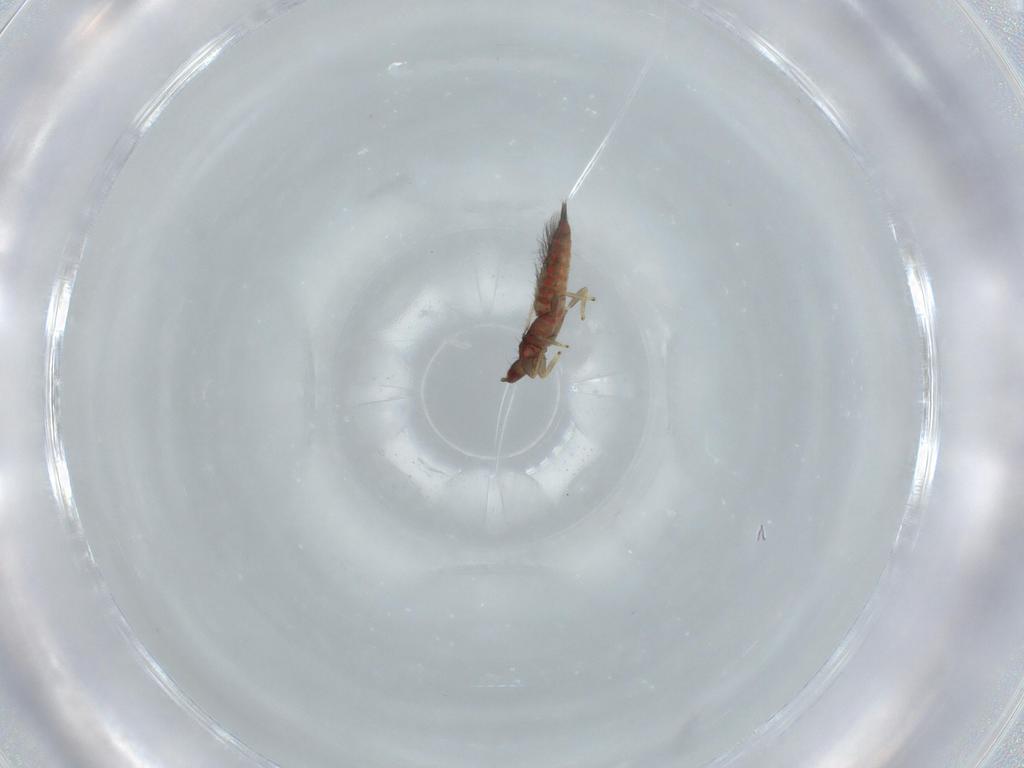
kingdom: Animalia
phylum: Arthropoda
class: Insecta
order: Thysanoptera
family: Phlaeothripidae
